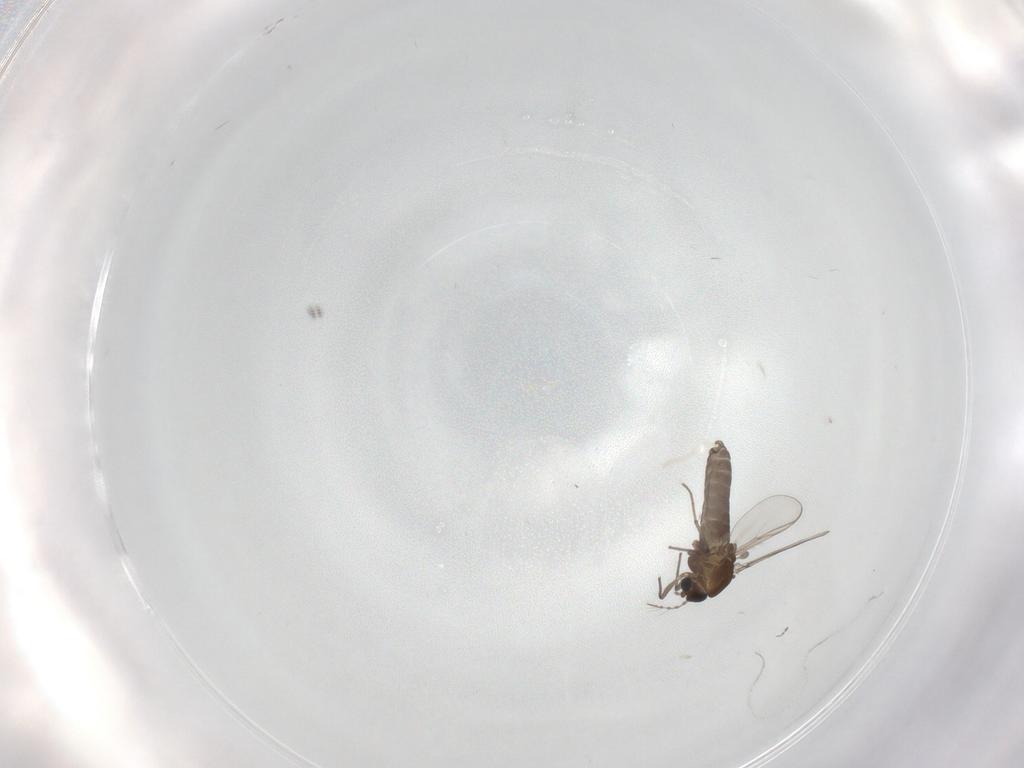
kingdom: Animalia
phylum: Arthropoda
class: Insecta
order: Diptera
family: Chironomidae
